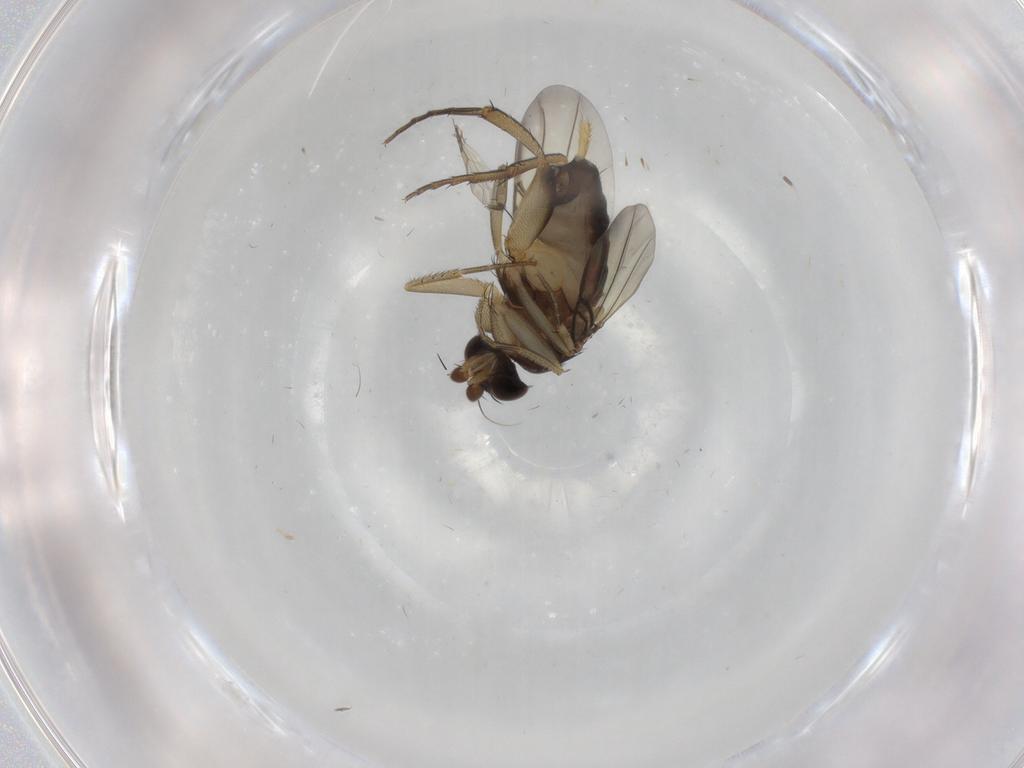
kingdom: Animalia
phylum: Arthropoda
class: Insecta
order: Diptera
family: Phoridae
